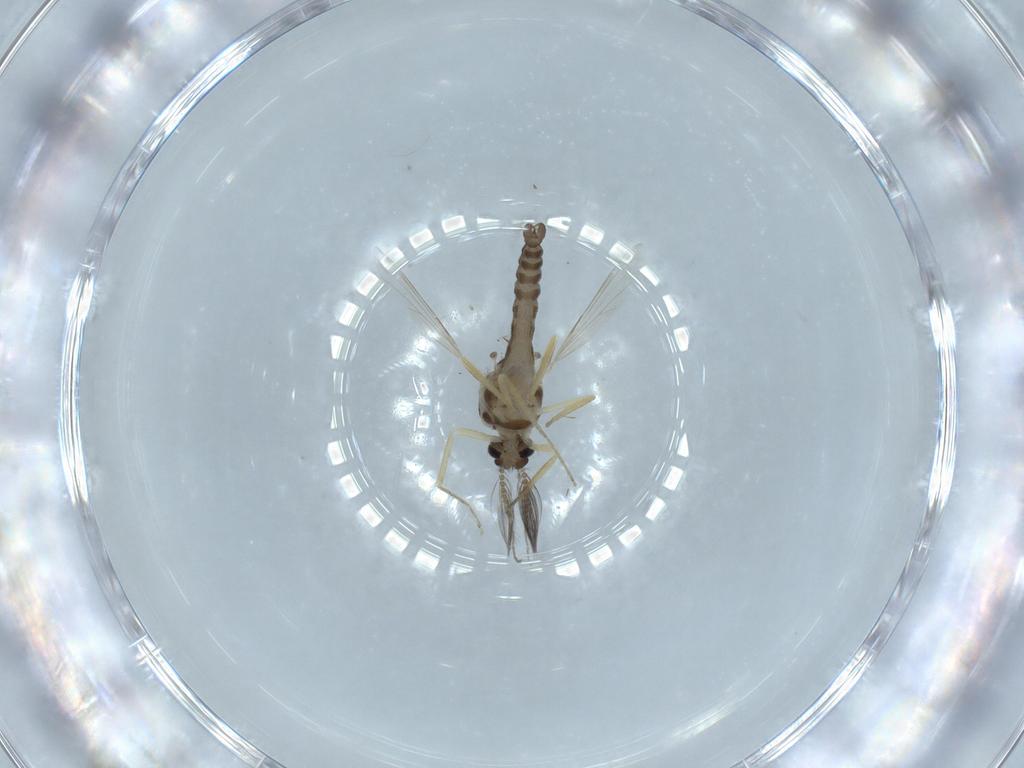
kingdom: Animalia
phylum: Arthropoda
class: Insecta
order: Diptera
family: Ceratopogonidae
